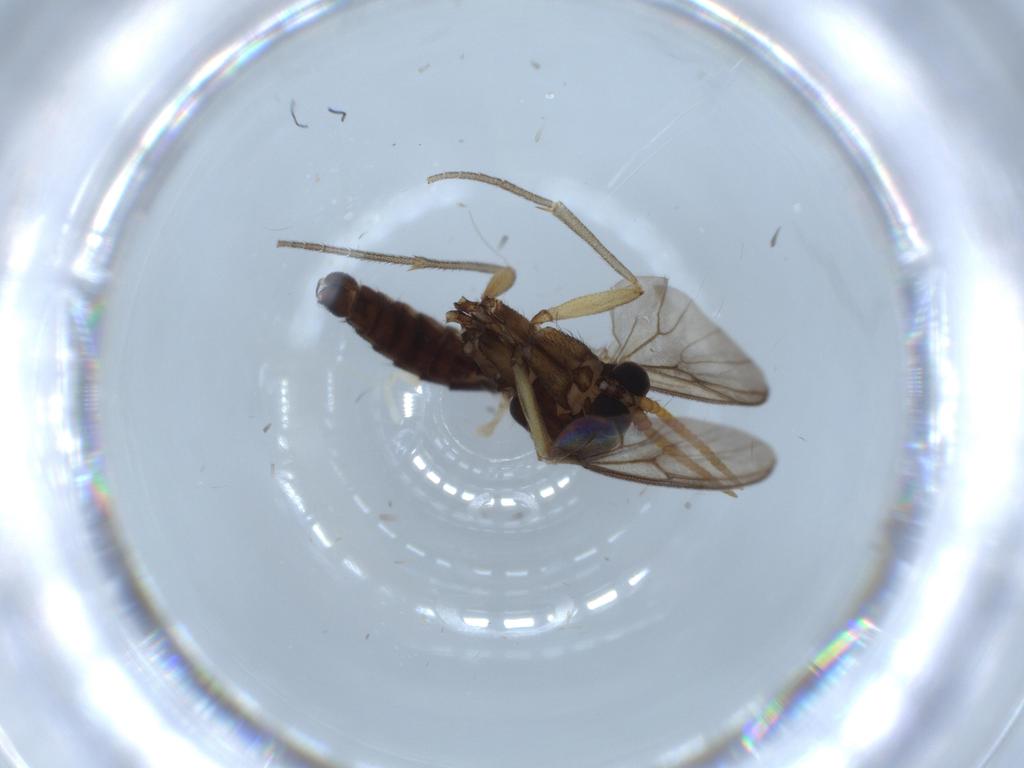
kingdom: Animalia
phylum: Arthropoda
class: Insecta
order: Diptera
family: Mycetophilidae
